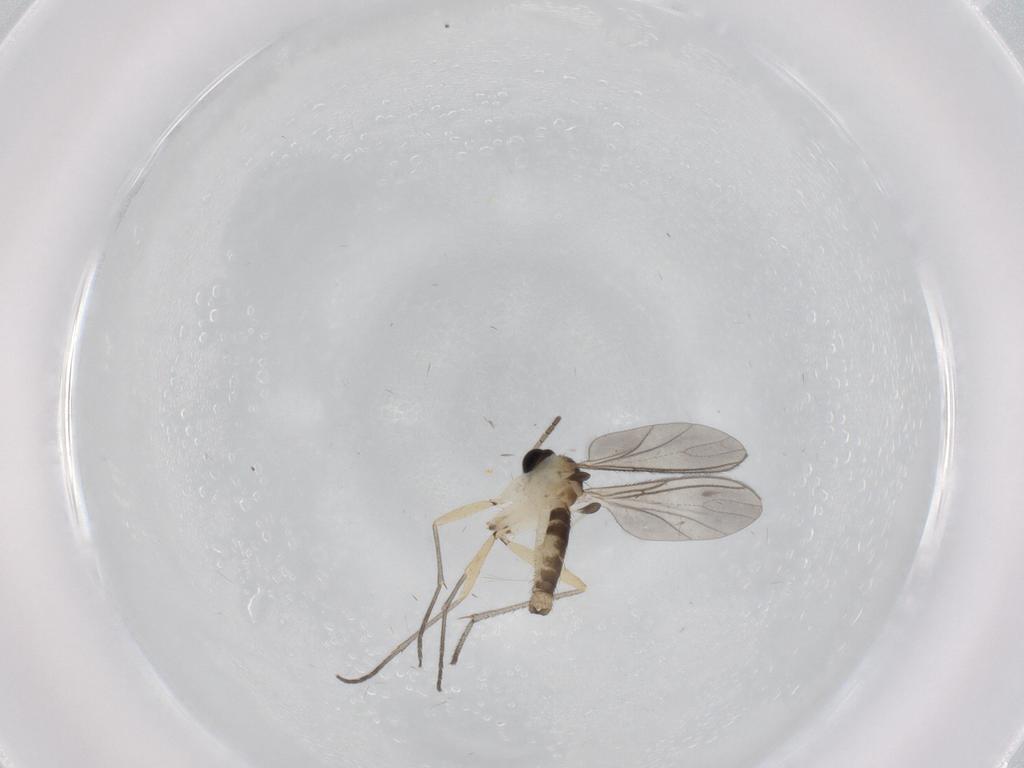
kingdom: Animalia
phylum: Arthropoda
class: Insecta
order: Diptera
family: Sciaridae
